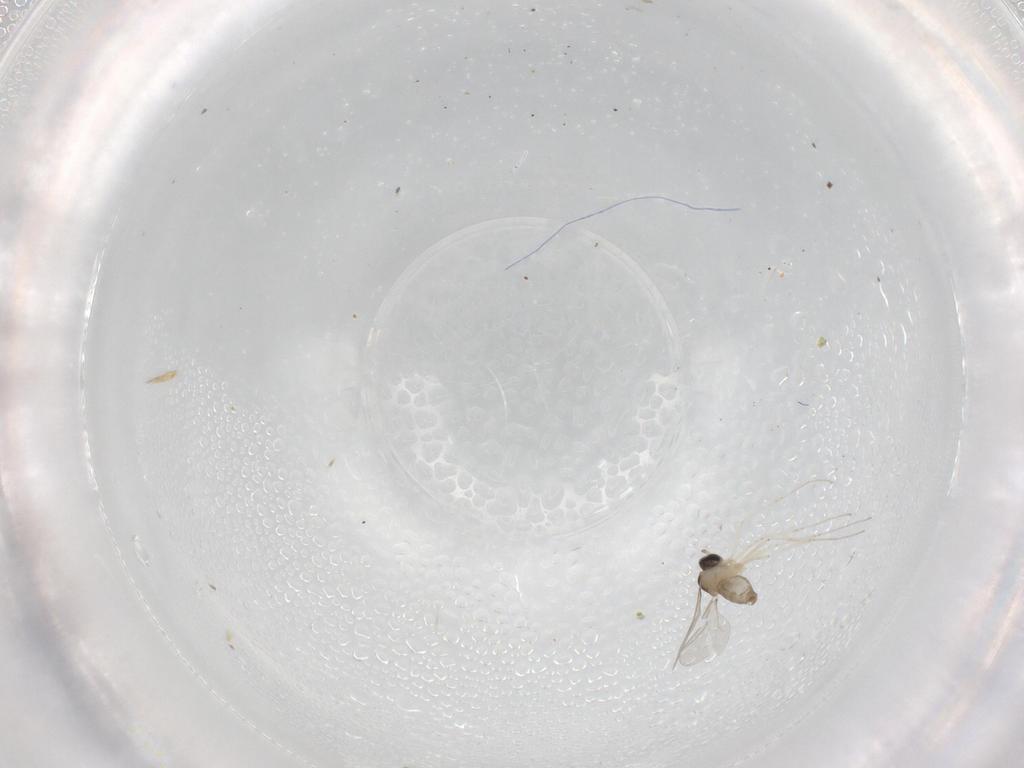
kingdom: Animalia
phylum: Arthropoda
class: Insecta
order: Diptera
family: Cecidomyiidae
